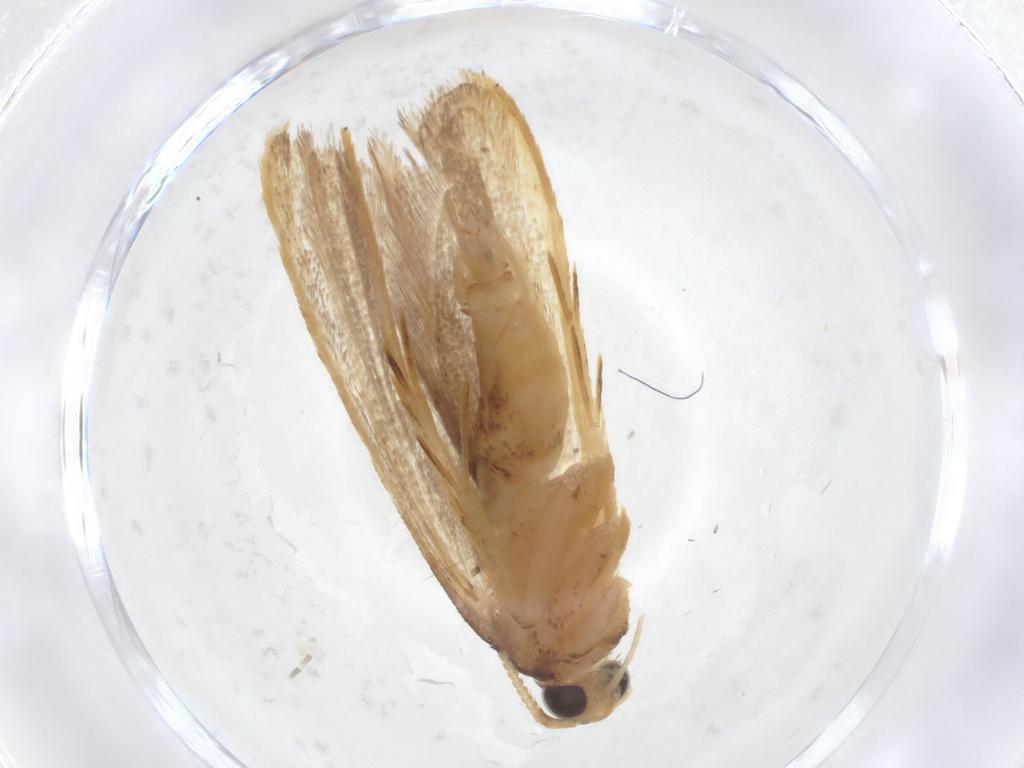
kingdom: Animalia
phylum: Arthropoda
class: Insecta
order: Lepidoptera
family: Lecithoceridae
